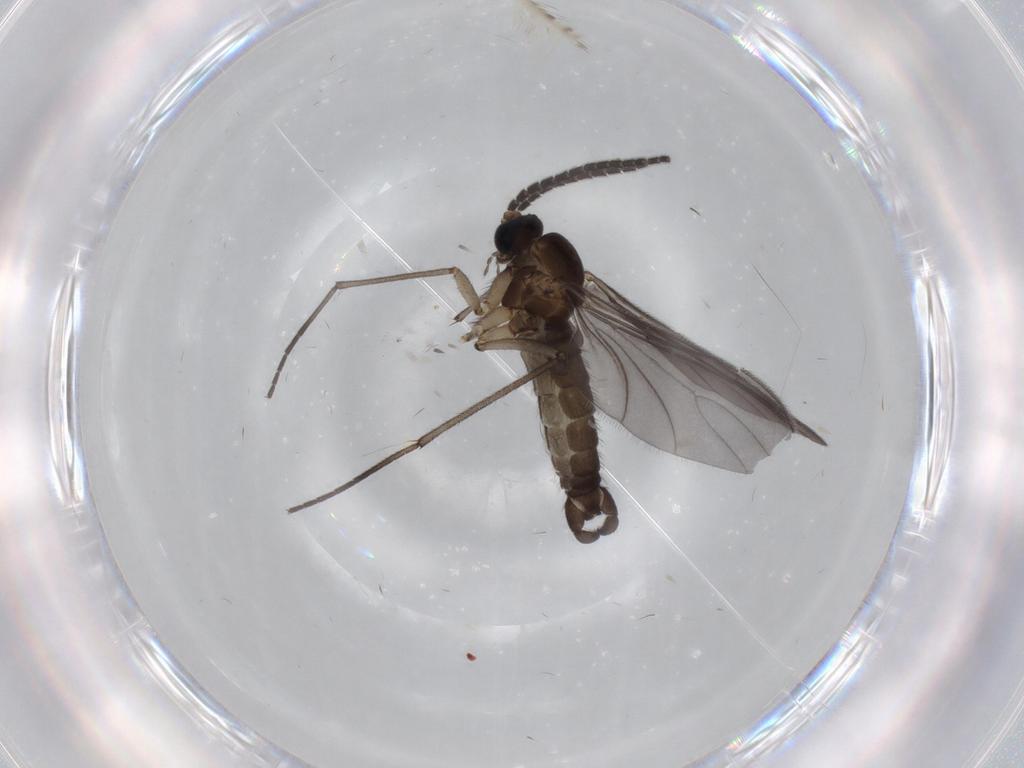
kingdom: Animalia
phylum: Arthropoda
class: Insecta
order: Diptera
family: Sciaridae
